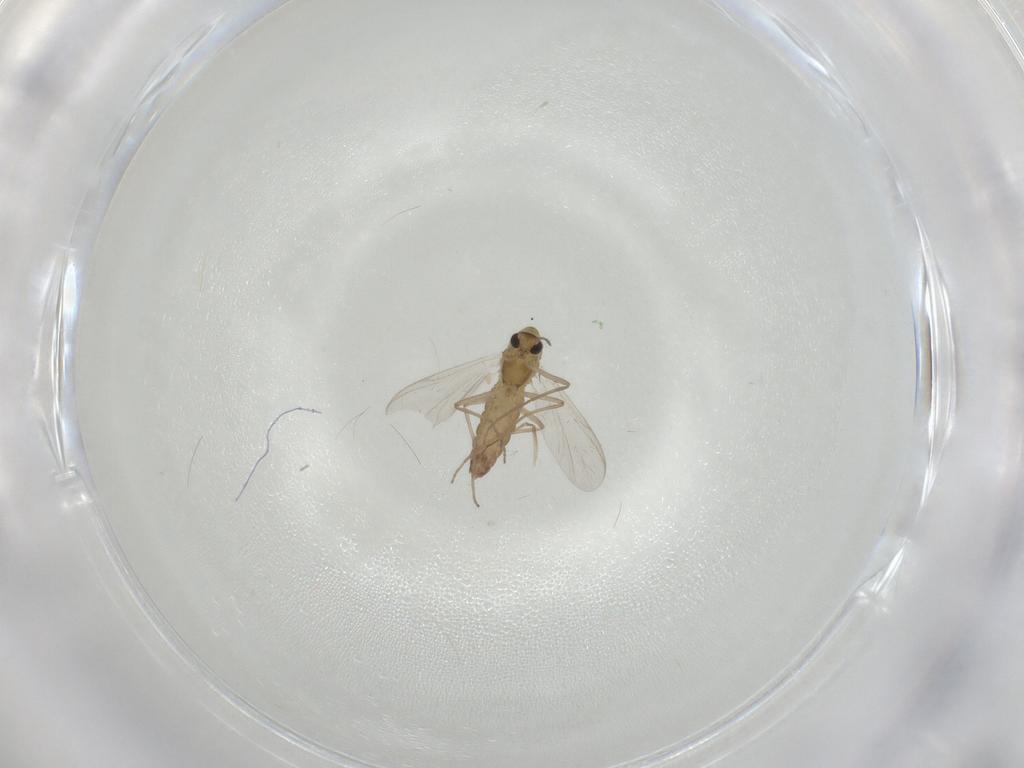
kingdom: Animalia
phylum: Arthropoda
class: Insecta
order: Diptera
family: Chironomidae
